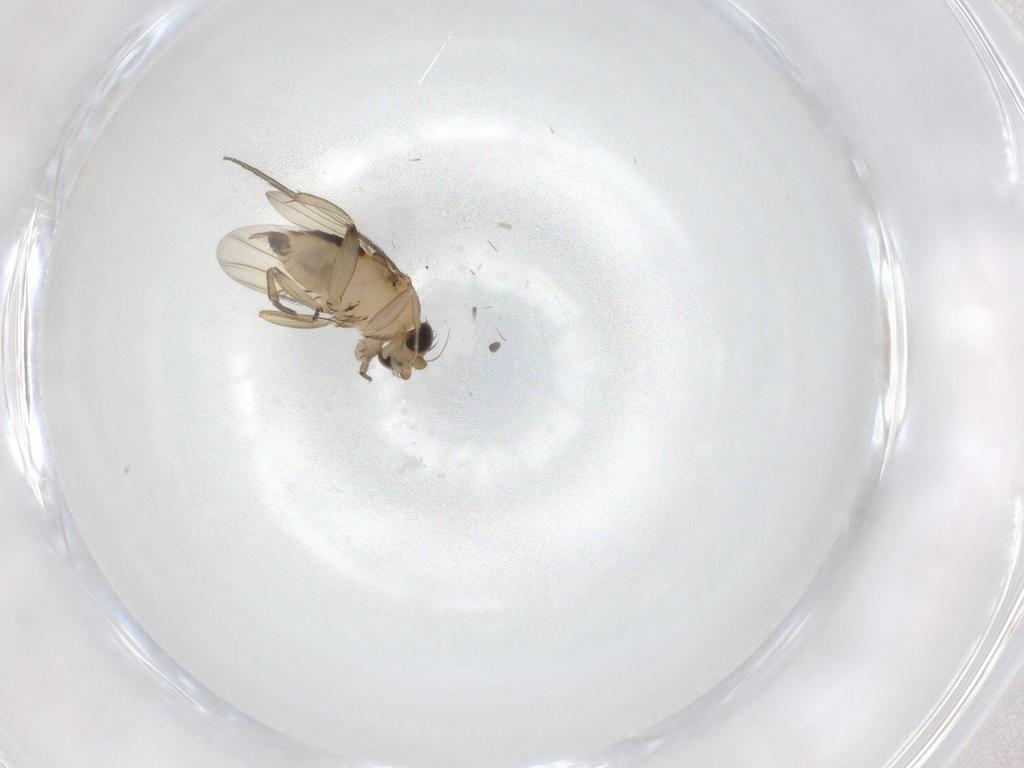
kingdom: Animalia
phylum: Arthropoda
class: Insecta
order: Diptera
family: Phoridae
